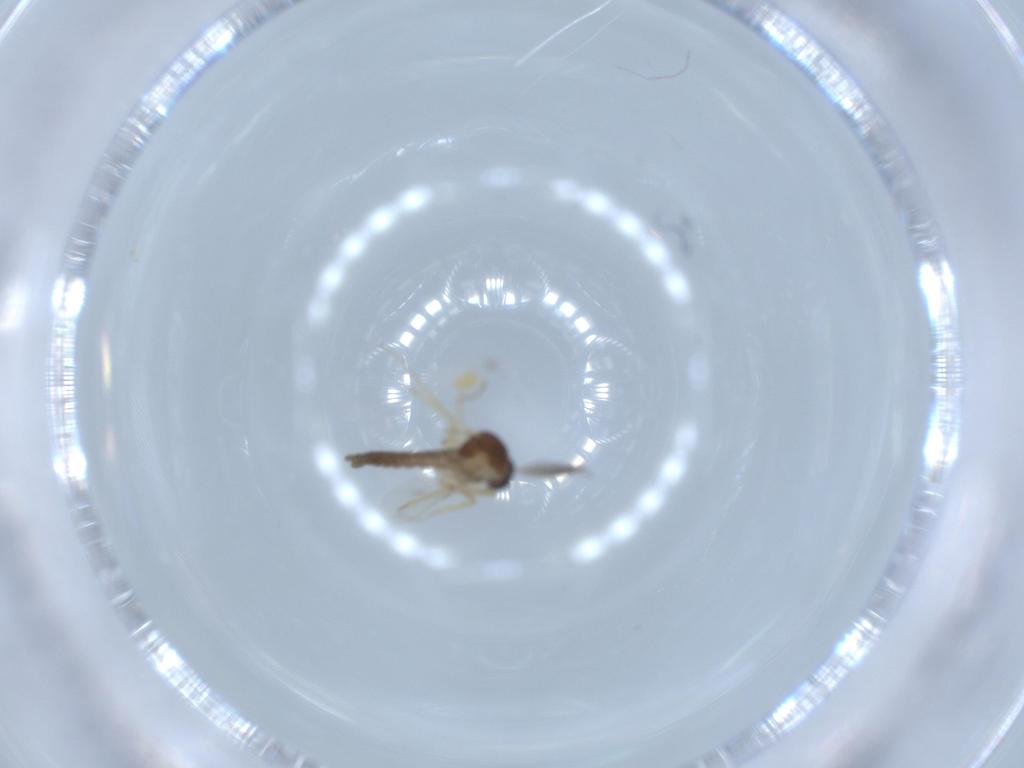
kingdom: Animalia
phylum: Arthropoda
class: Insecta
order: Diptera
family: Ceratopogonidae
